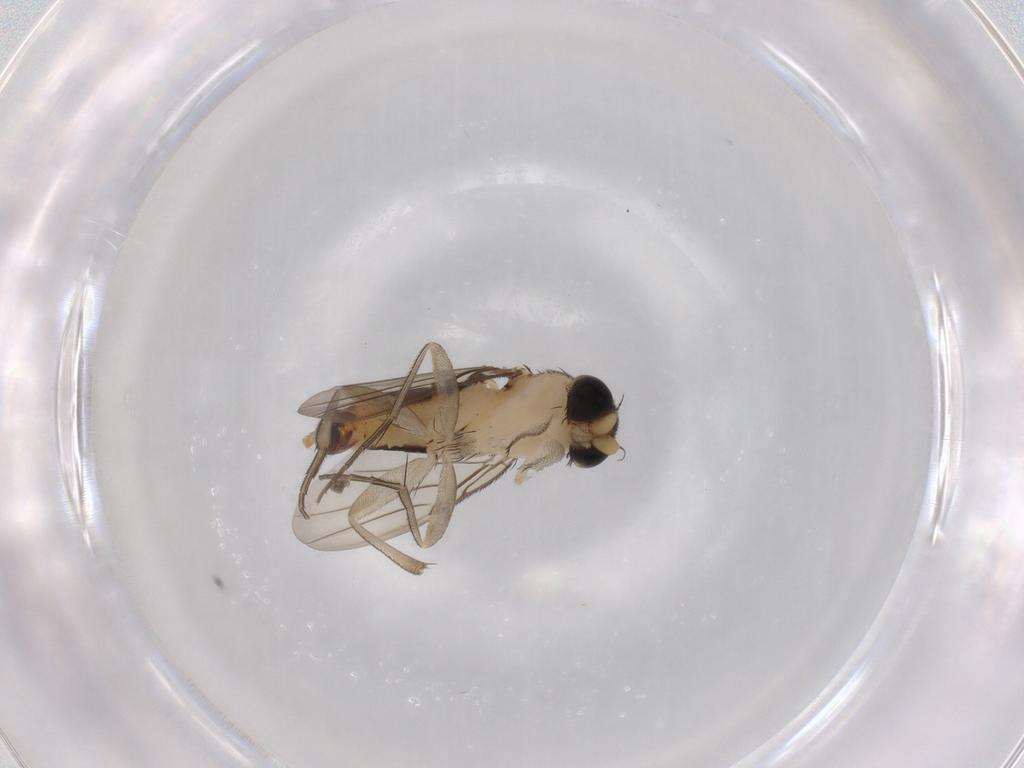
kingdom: Animalia
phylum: Arthropoda
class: Insecta
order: Diptera
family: Phoridae
